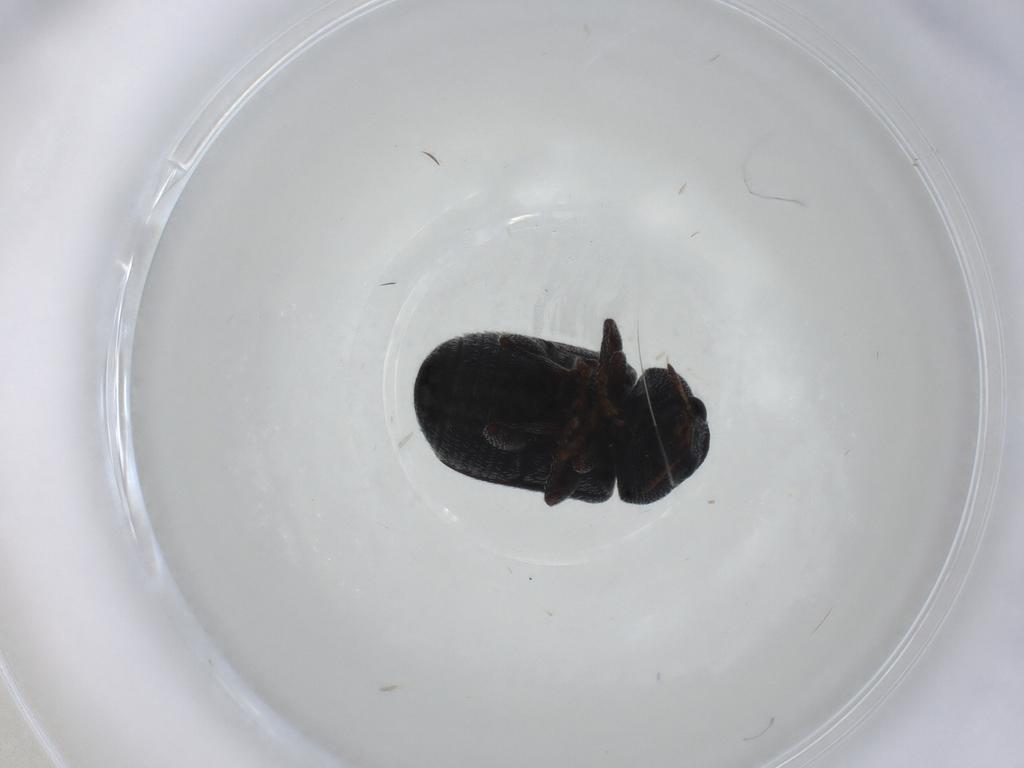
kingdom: Animalia
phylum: Arthropoda
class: Insecta
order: Coleoptera
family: Anthribidae
